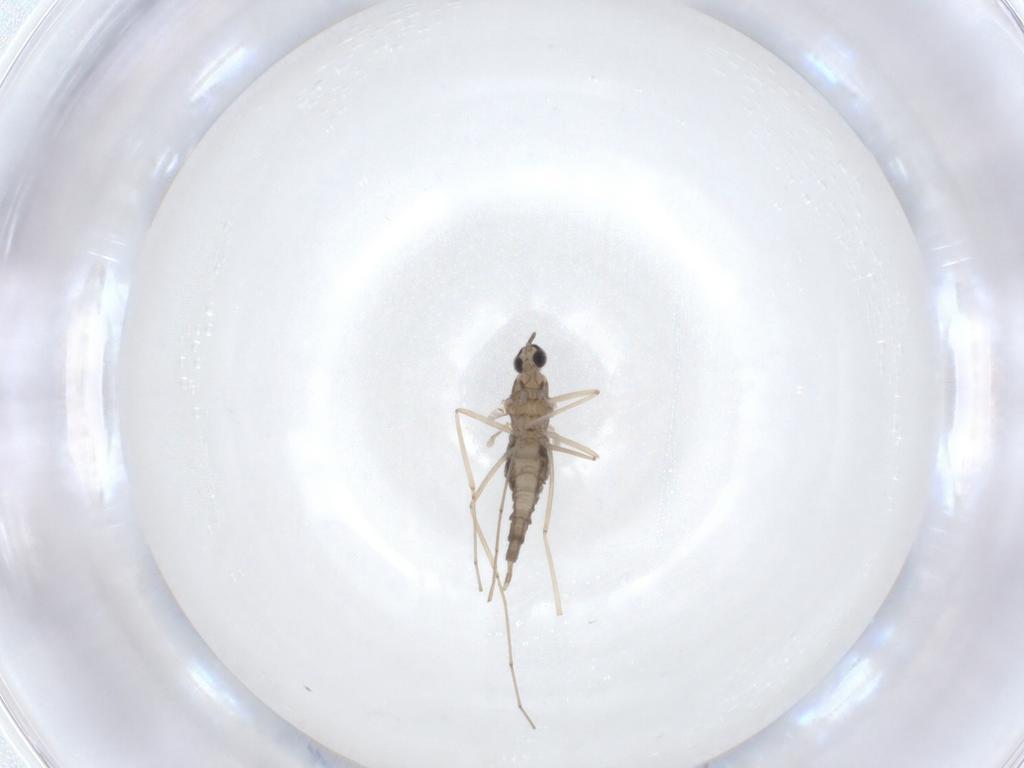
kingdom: Animalia
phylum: Arthropoda
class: Insecta
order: Diptera
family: Cecidomyiidae
